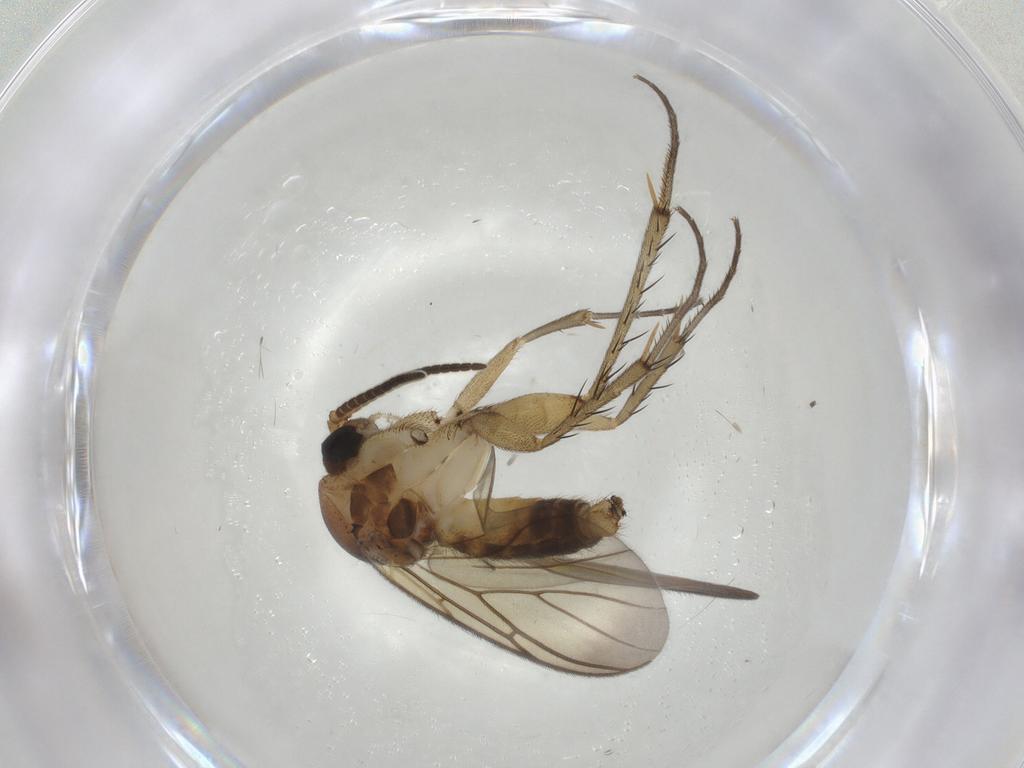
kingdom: Animalia
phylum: Arthropoda
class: Insecta
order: Diptera
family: Mycetophilidae
